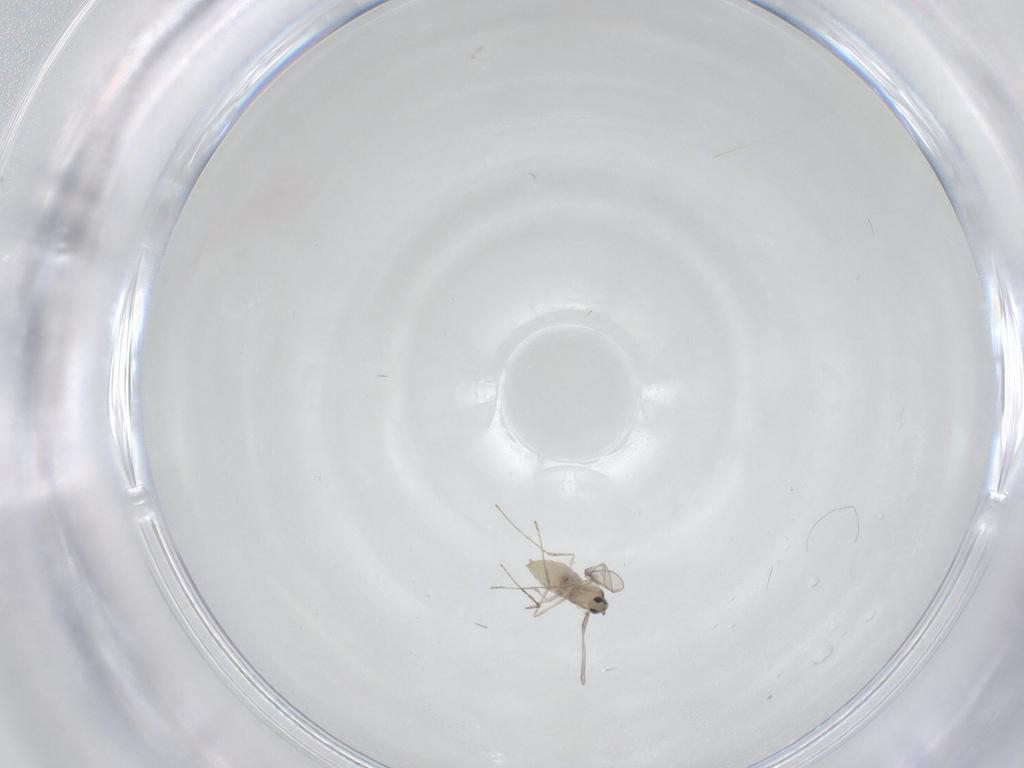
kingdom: Animalia
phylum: Arthropoda
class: Insecta
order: Diptera
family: Cecidomyiidae
